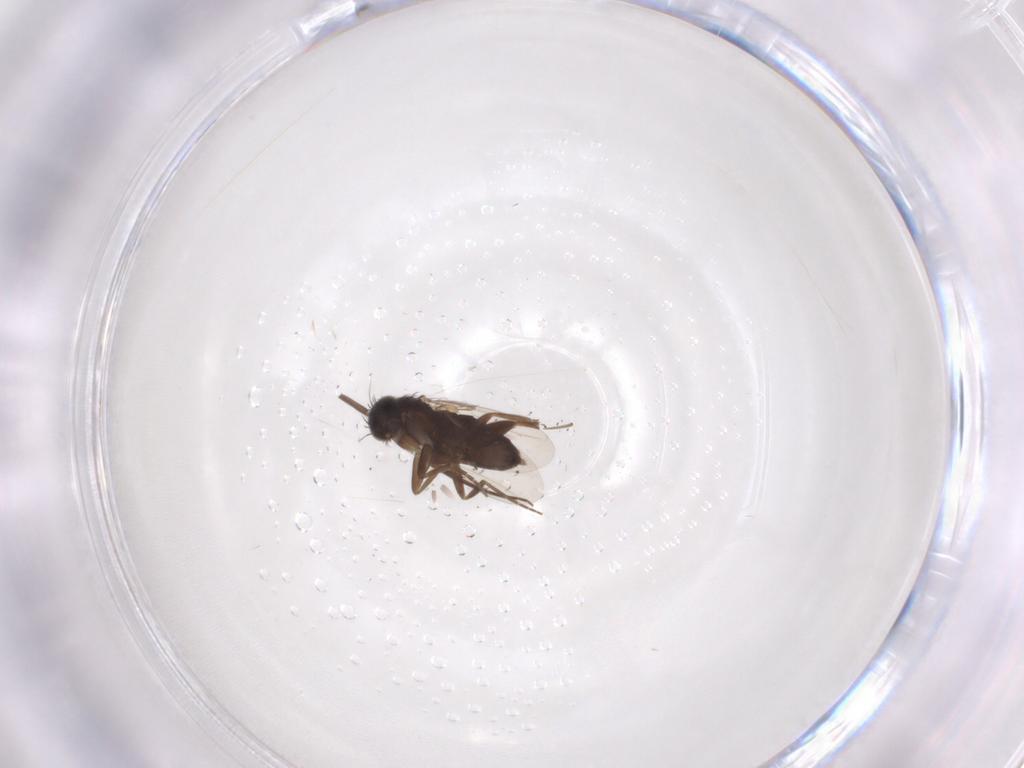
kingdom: Animalia
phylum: Arthropoda
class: Insecta
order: Diptera
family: Phoridae
